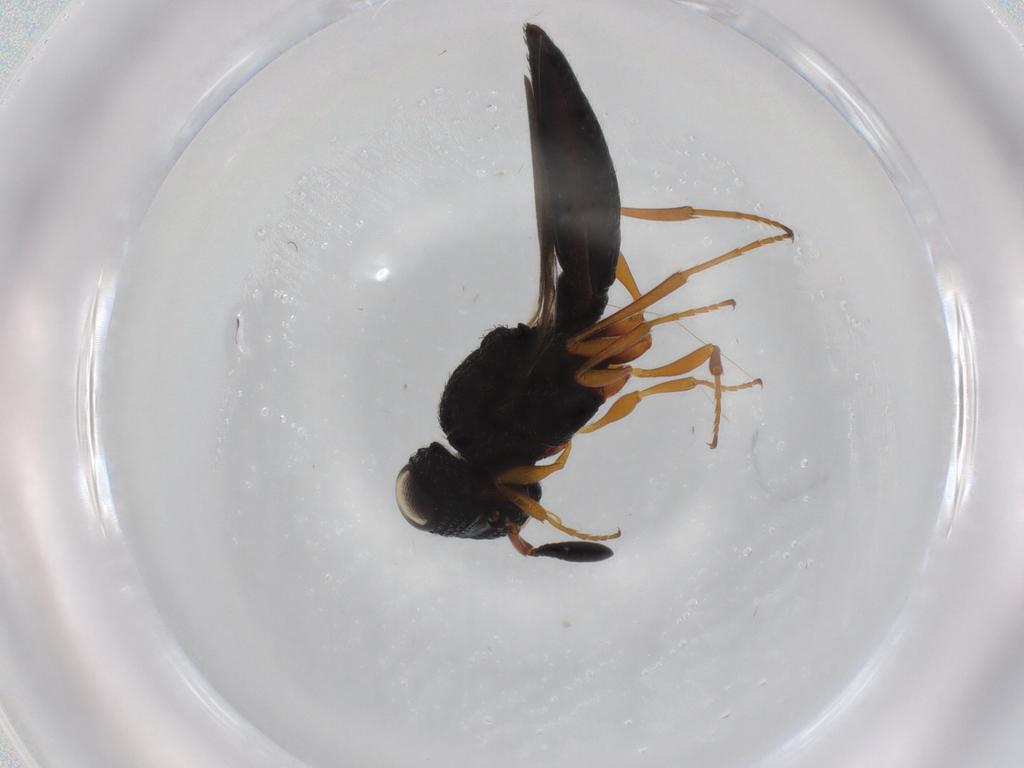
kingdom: Animalia
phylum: Arthropoda
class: Insecta
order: Hymenoptera
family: Scelionidae
